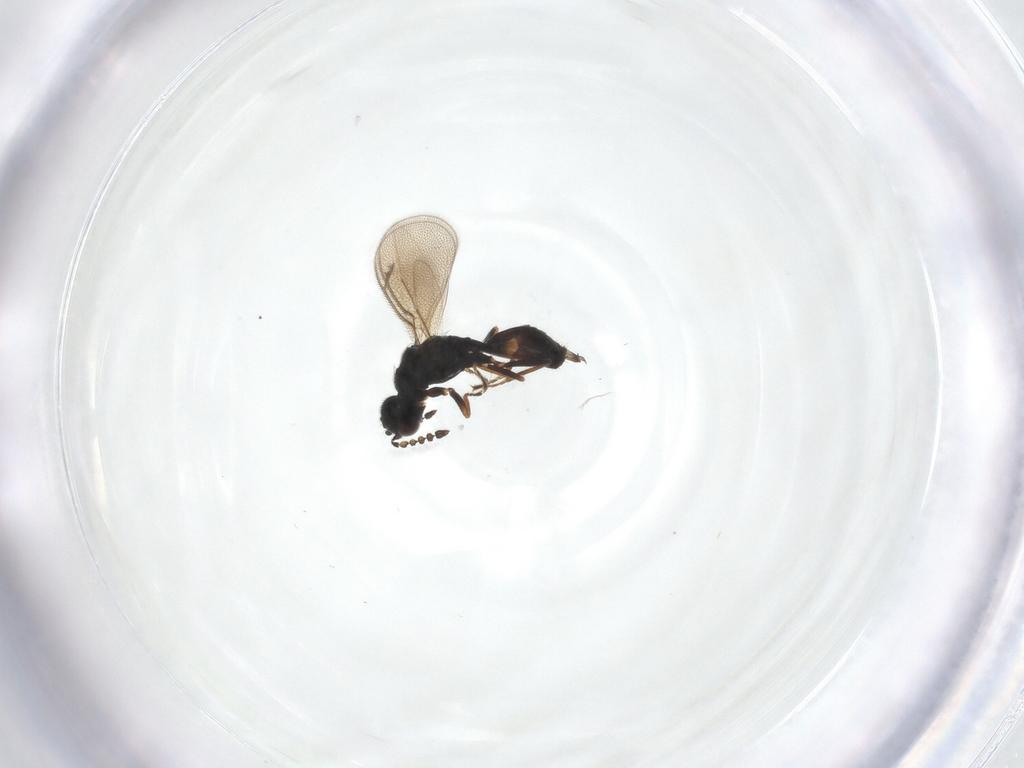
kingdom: Animalia
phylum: Arthropoda
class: Insecta
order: Hymenoptera
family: Eulophidae
